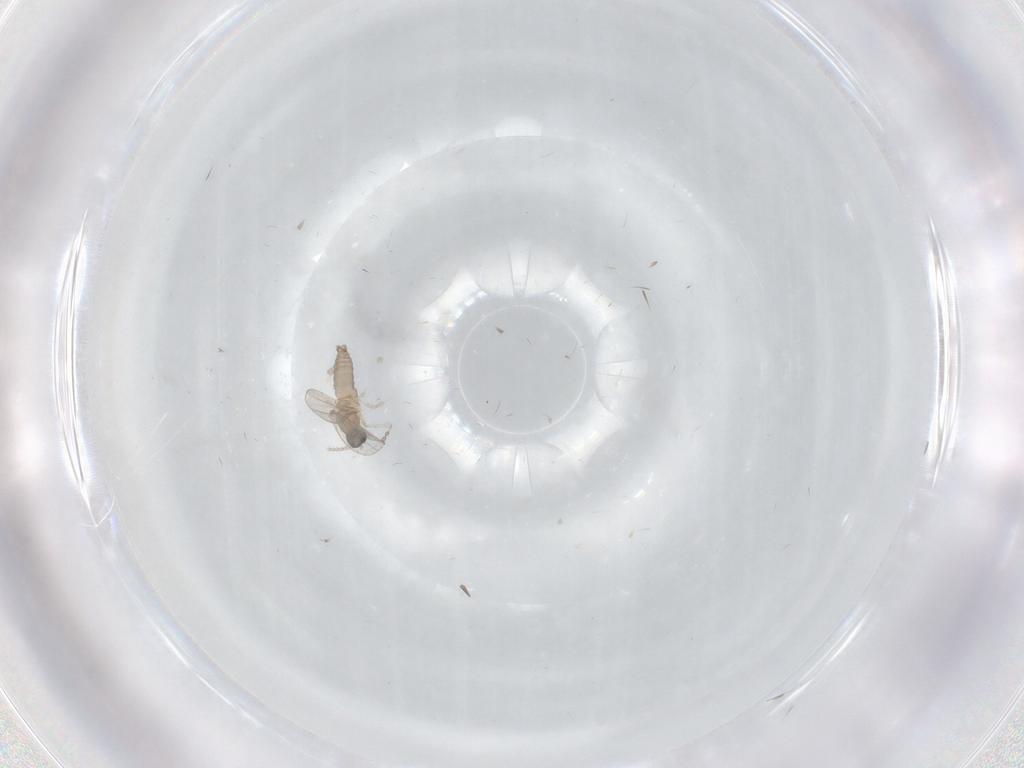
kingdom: Animalia
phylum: Arthropoda
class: Insecta
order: Diptera
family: Cecidomyiidae
